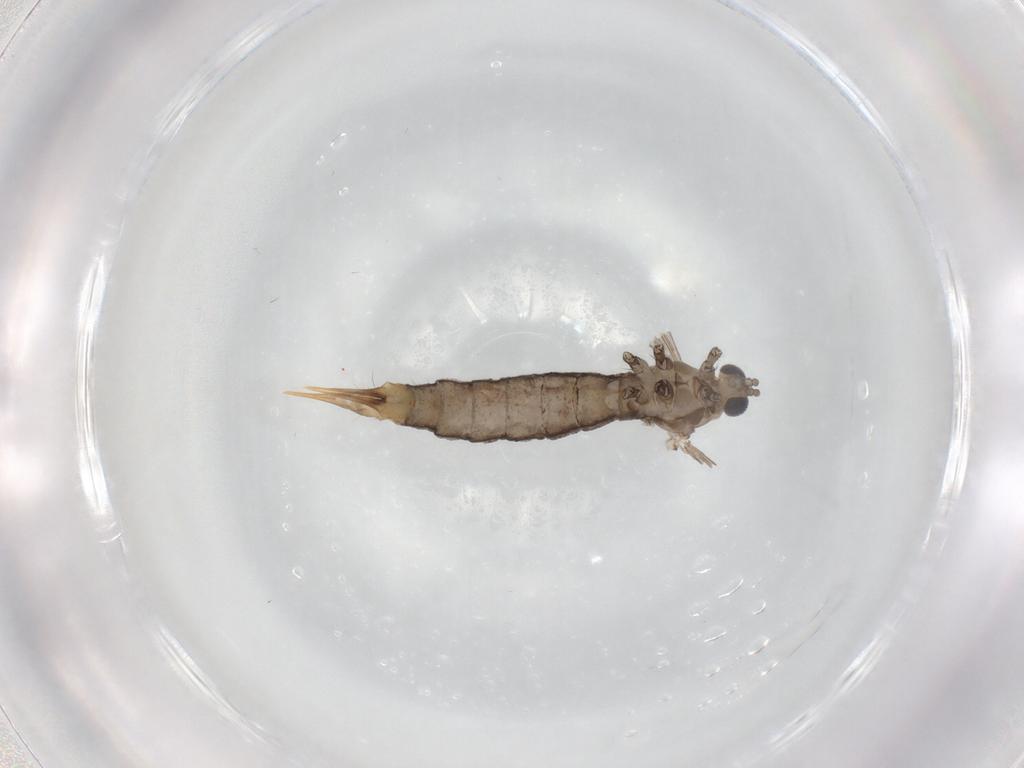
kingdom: Animalia
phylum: Arthropoda
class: Insecta
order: Diptera
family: Limoniidae
